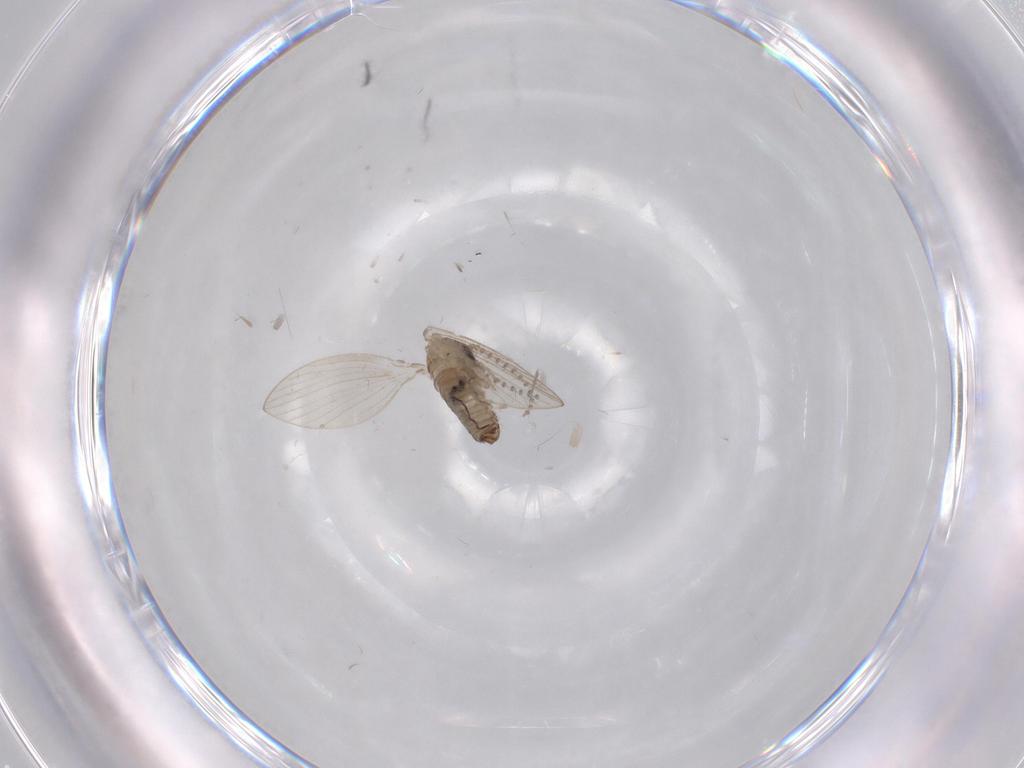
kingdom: Animalia
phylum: Arthropoda
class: Insecta
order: Diptera
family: Psychodidae
